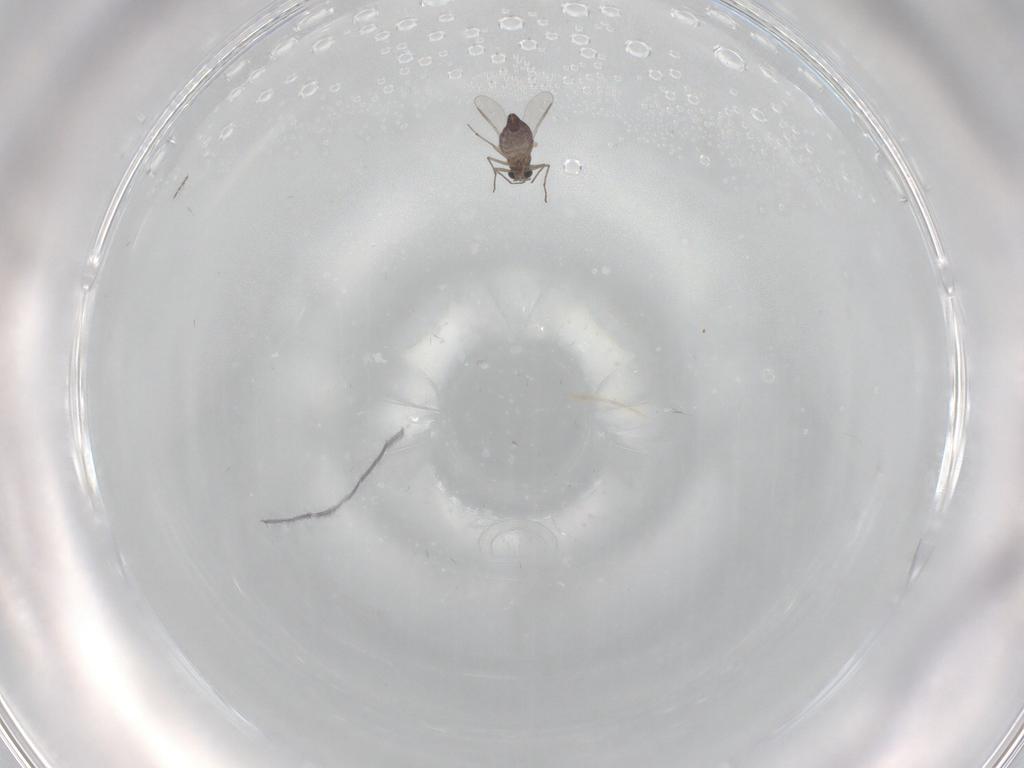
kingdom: Animalia
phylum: Arthropoda
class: Insecta
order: Diptera
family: Chironomidae
